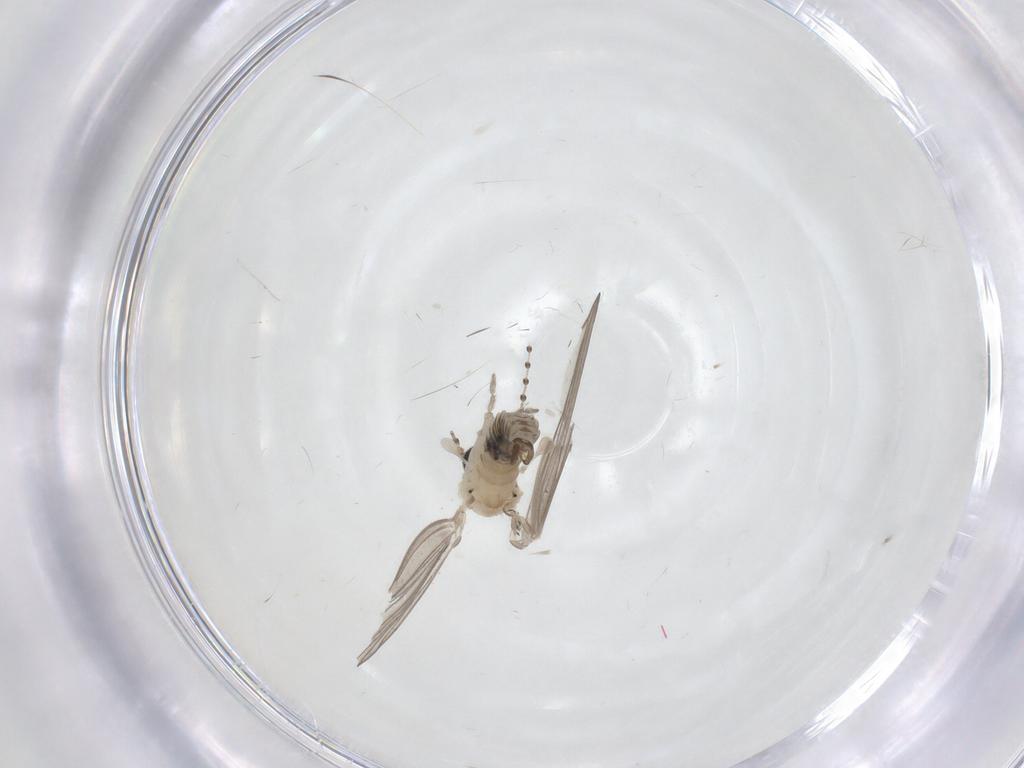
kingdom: Animalia
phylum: Arthropoda
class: Insecta
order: Diptera
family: Psychodidae
